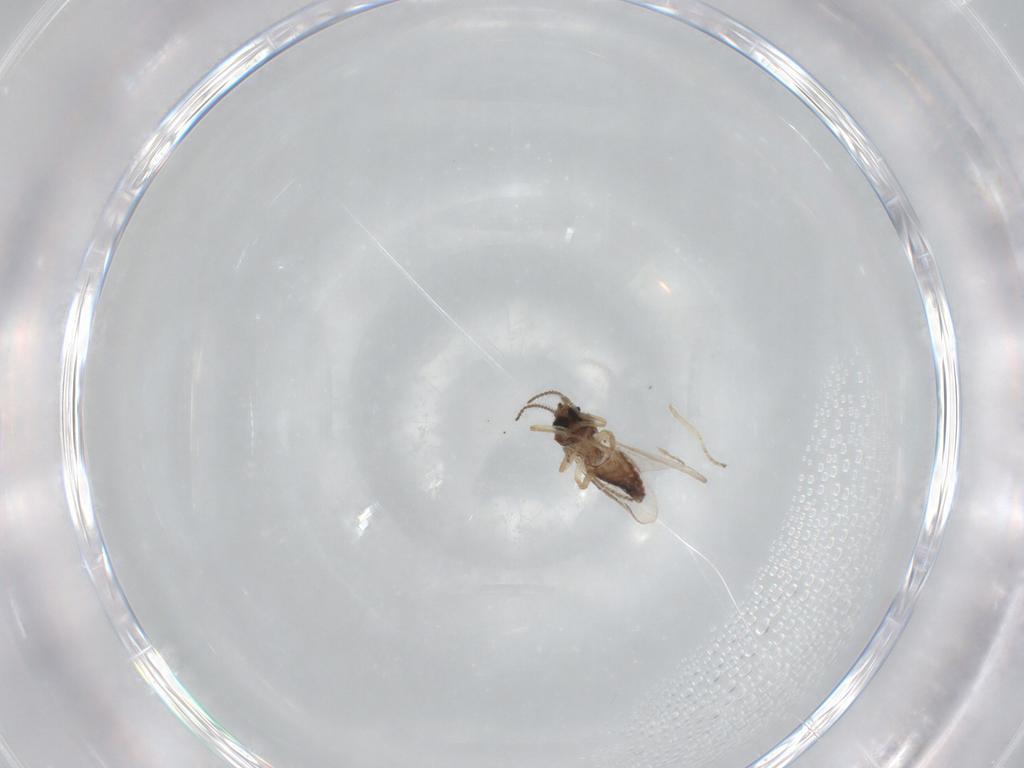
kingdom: Animalia
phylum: Arthropoda
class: Insecta
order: Diptera
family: Ceratopogonidae
